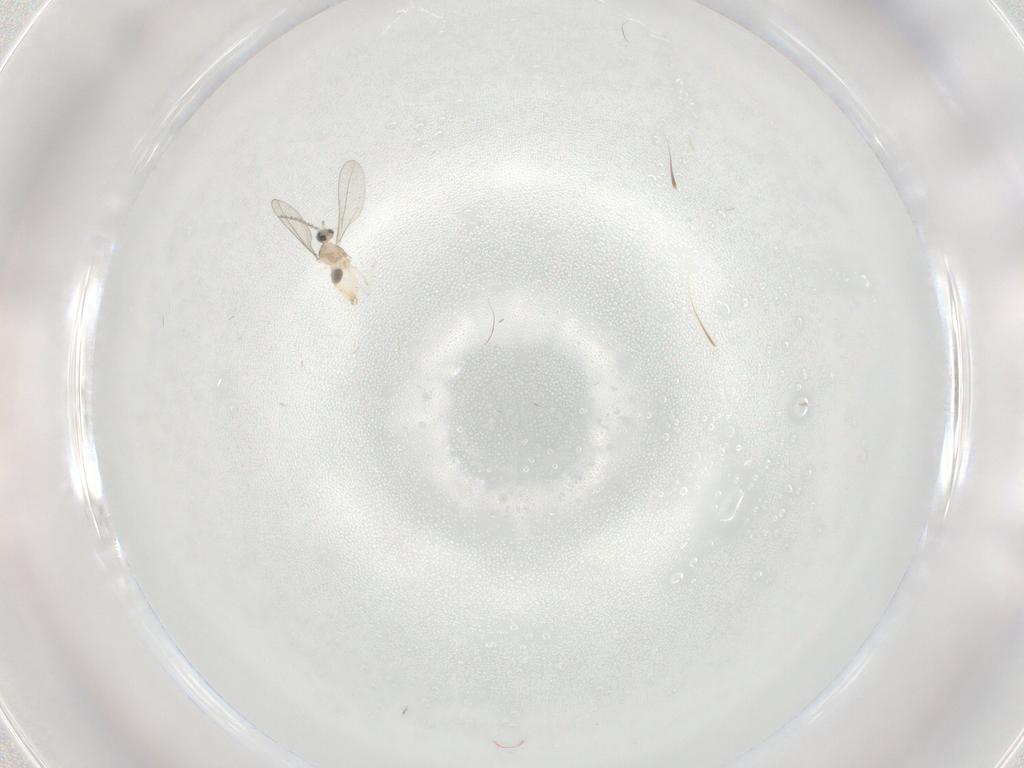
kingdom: Animalia
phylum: Arthropoda
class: Insecta
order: Diptera
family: Cecidomyiidae
